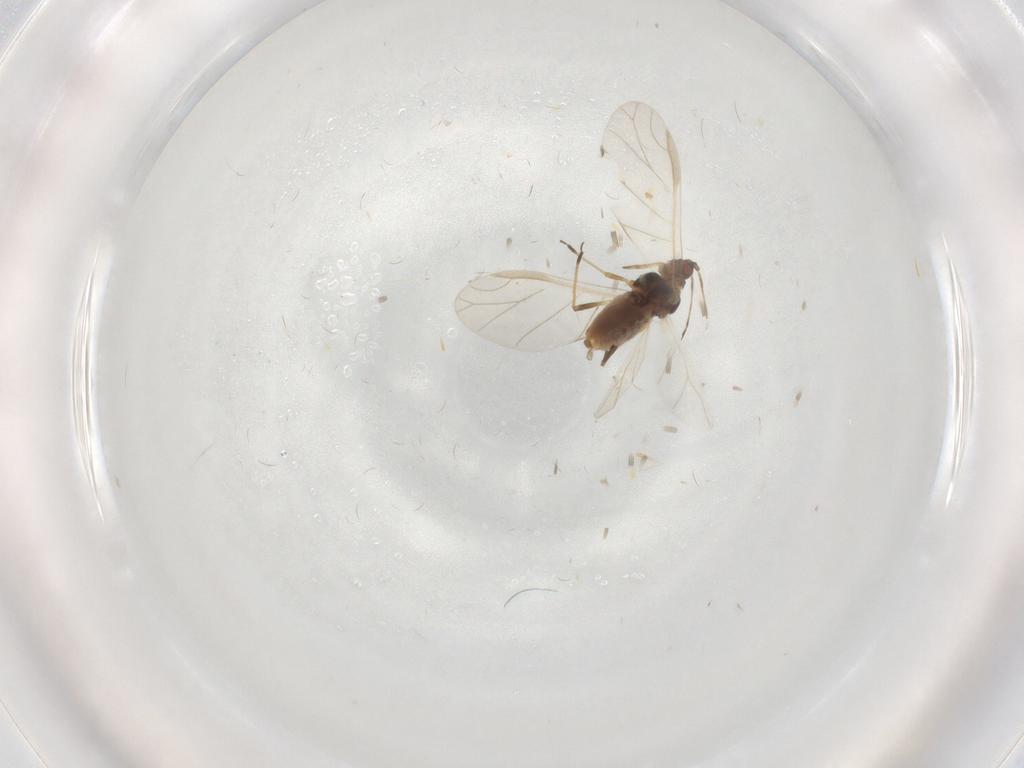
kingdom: Animalia
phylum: Arthropoda
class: Insecta
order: Hemiptera
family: Aphididae
